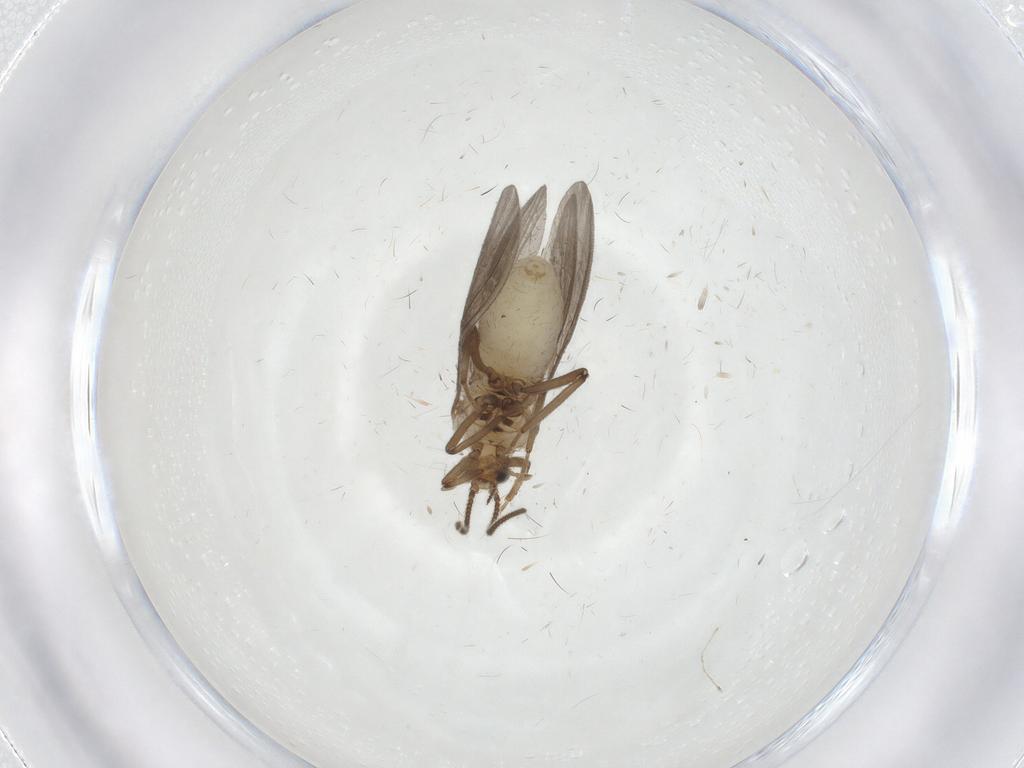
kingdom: Animalia
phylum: Arthropoda
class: Insecta
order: Neuroptera
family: Coniopterygidae
